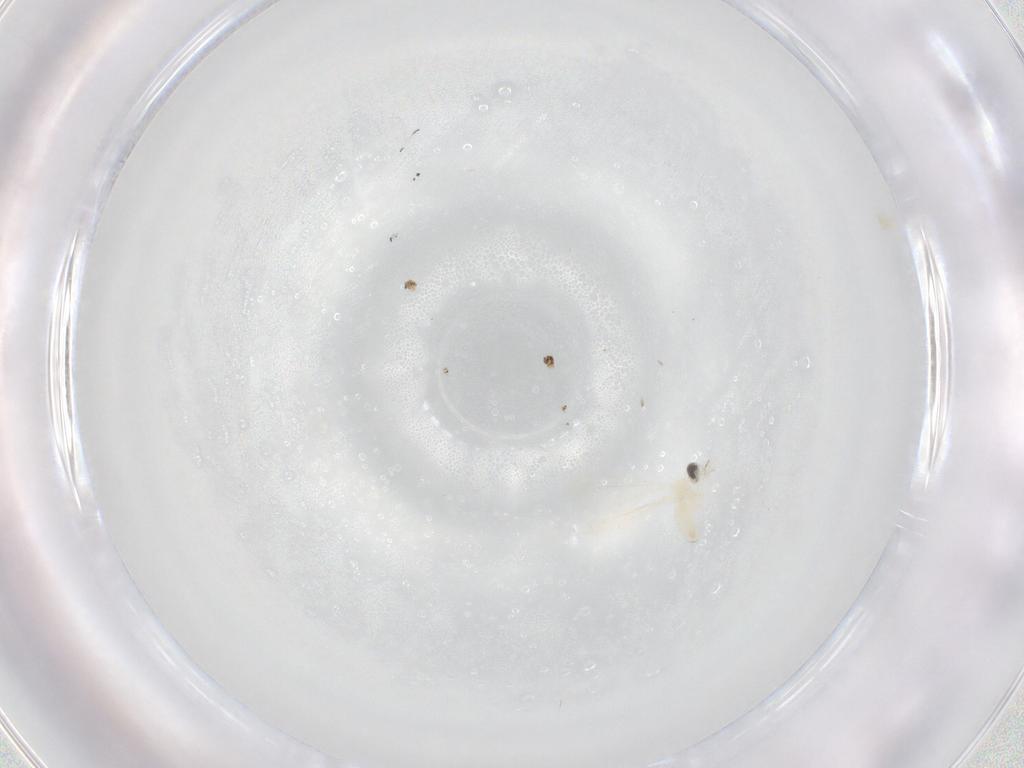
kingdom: Animalia
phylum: Arthropoda
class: Insecta
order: Diptera
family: Cecidomyiidae
